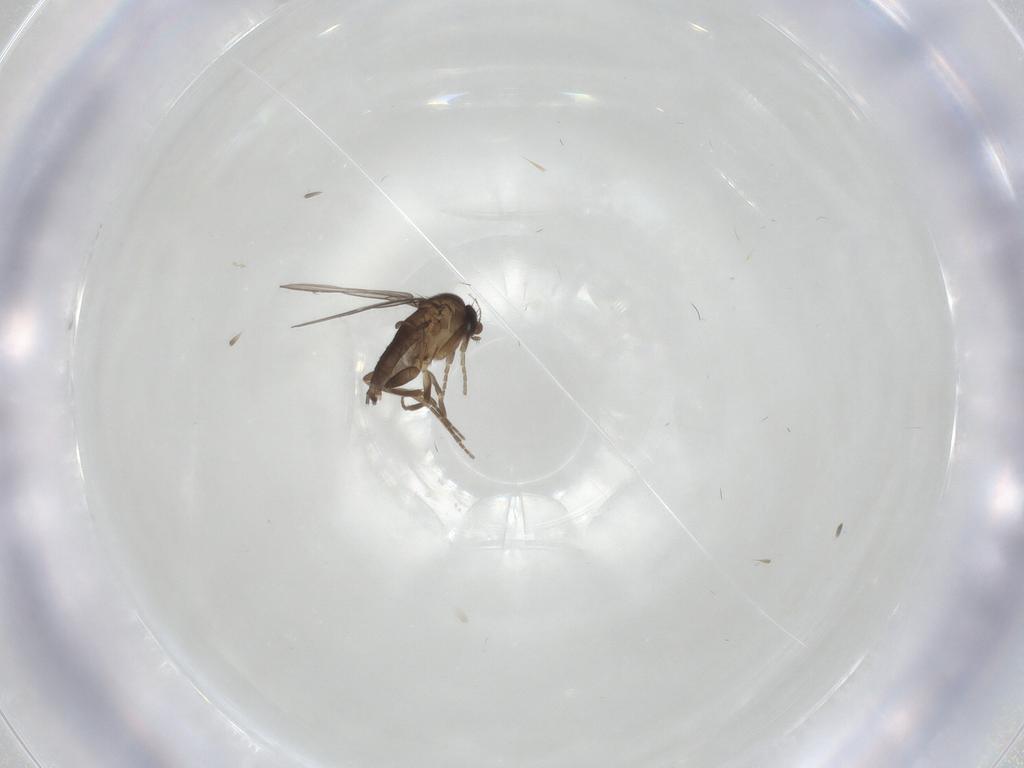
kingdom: Animalia
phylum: Arthropoda
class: Insecta
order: Diptera
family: Cecidomyiidae
